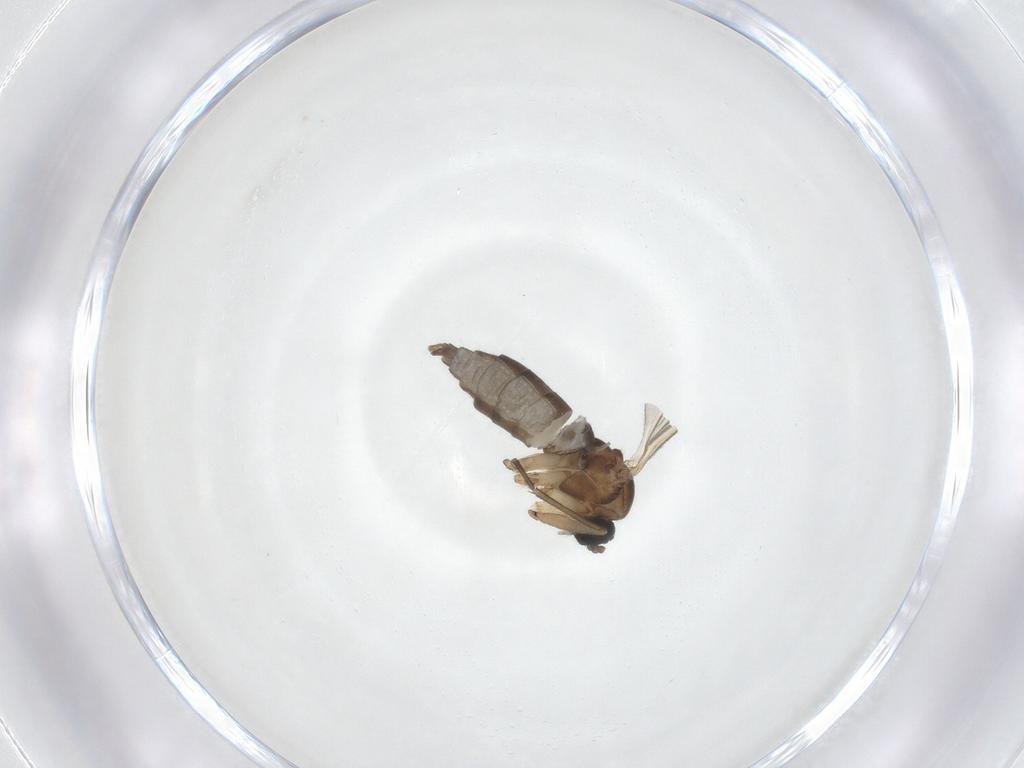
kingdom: Animalia
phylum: Arthropoda
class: Insecta
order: Diptera
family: Sciaridae
